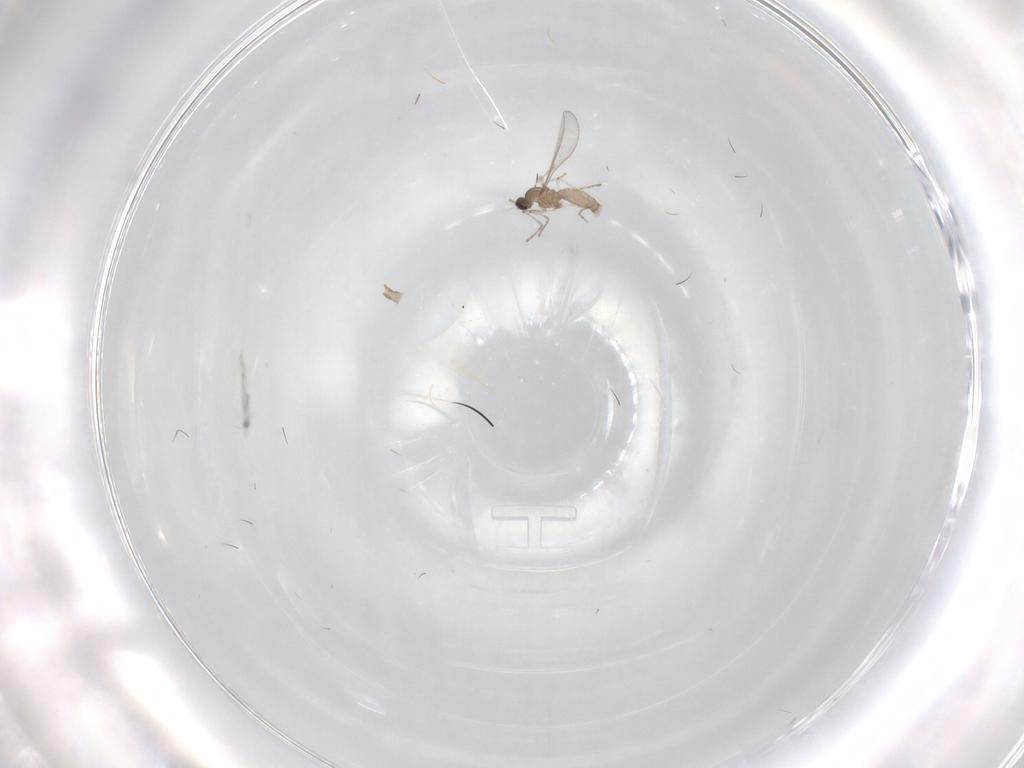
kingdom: Animalia
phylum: Arthropoda
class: Insecta
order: Diptera
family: Cecidomyiidae
